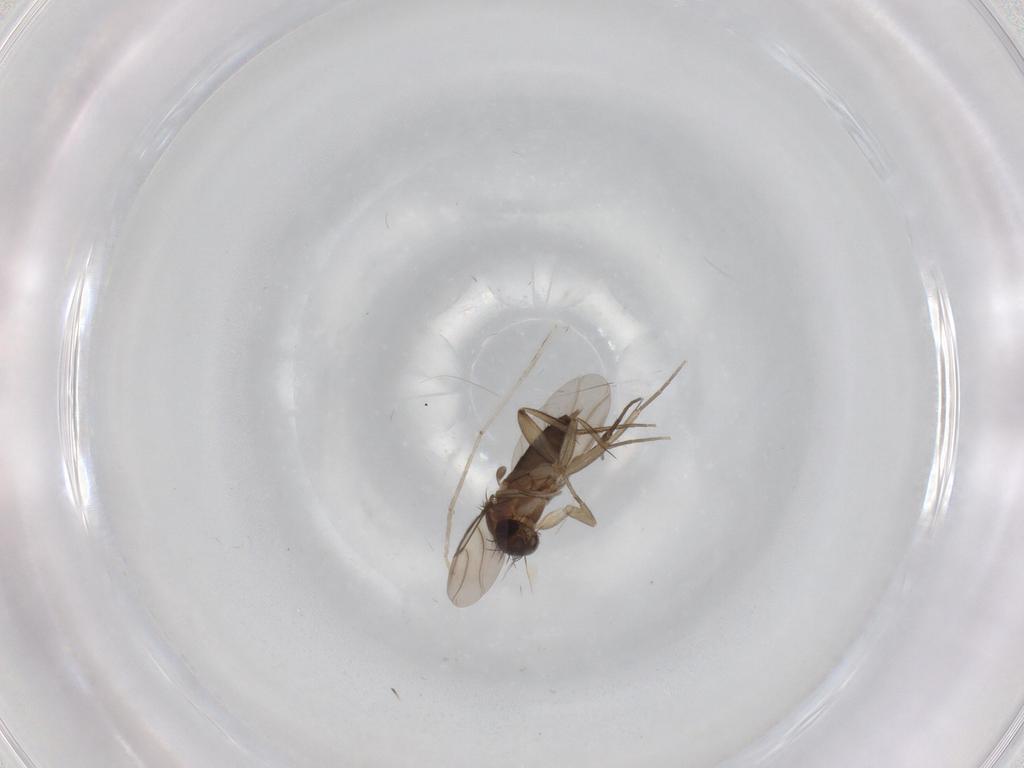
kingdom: Animalia
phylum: Arthropoda
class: Insecta
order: Diptera
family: Phoridae
